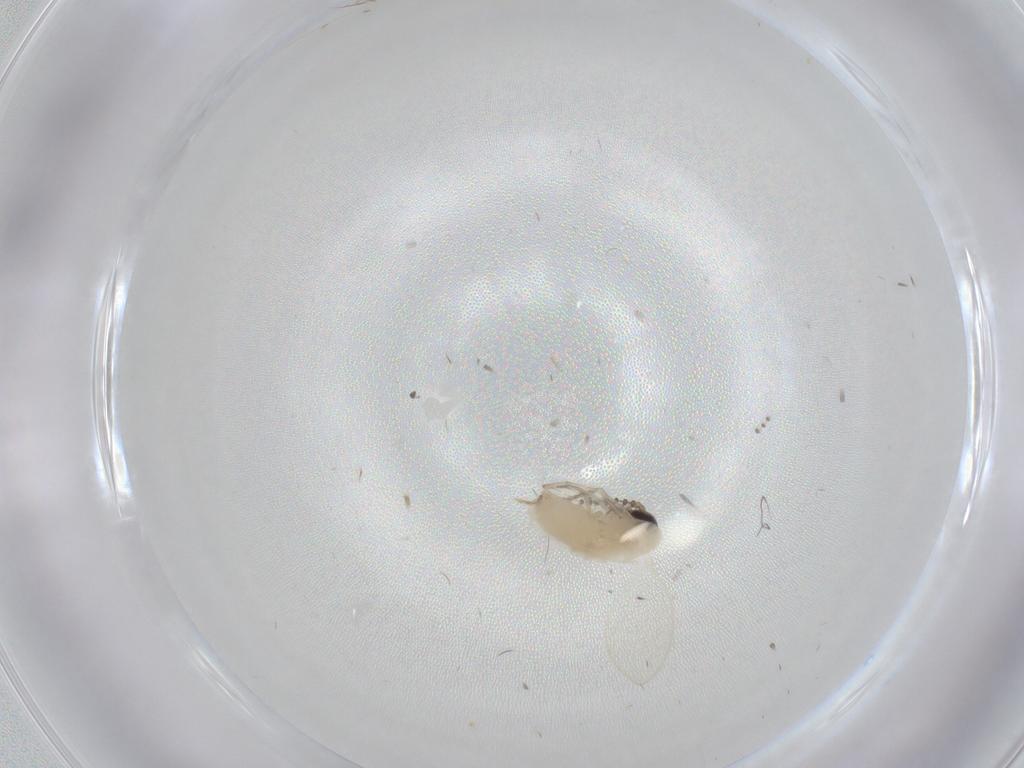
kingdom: Animalia
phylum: Arthropoda
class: Insecta
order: Diptera
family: Psychodidae
